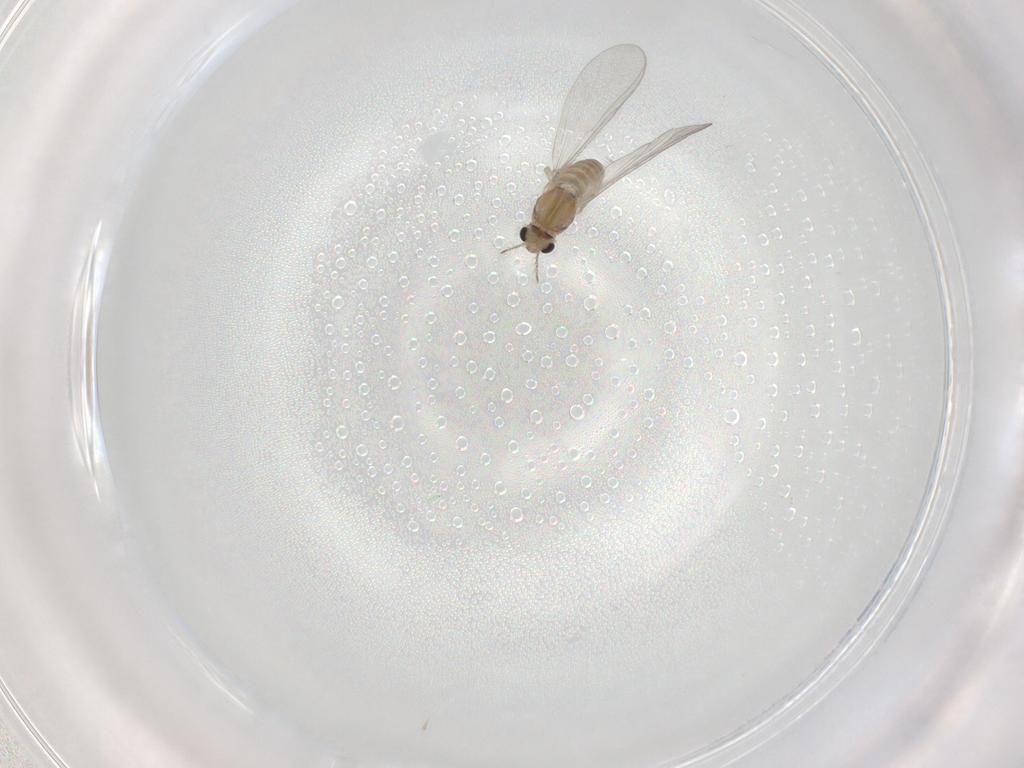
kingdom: Animalia
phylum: Arthropoda
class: Insecta
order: Diptera
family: Chironomidae
